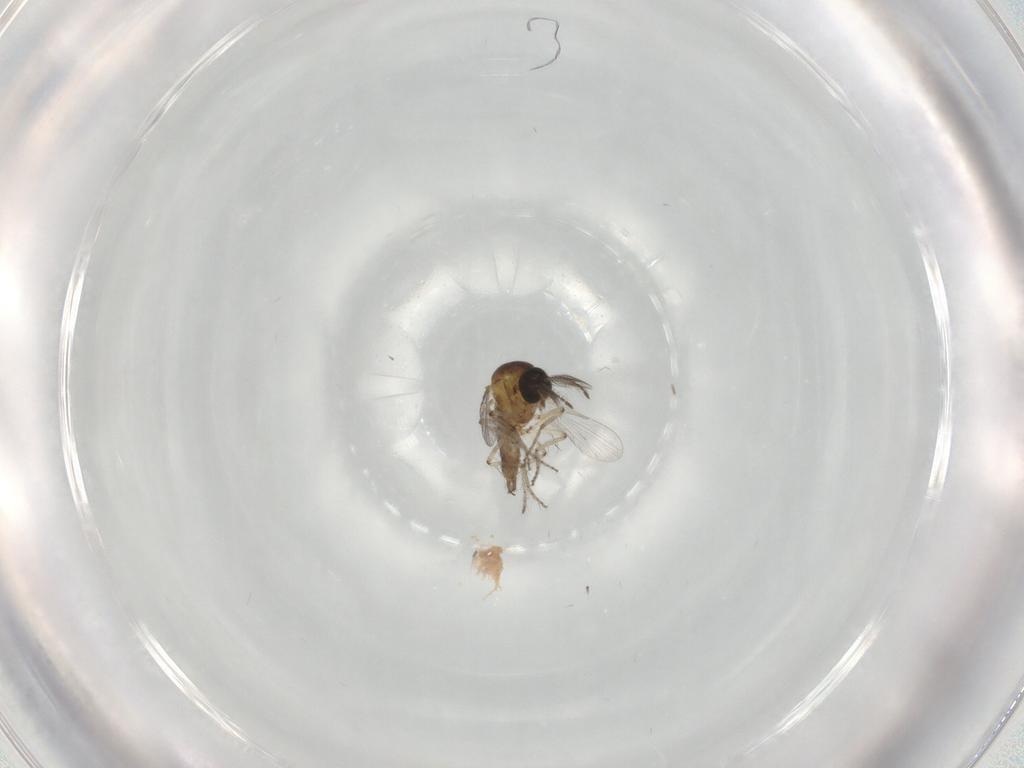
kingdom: Animalia
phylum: Arthropoda
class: Insecta
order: Diptera
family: Ceratopogonidae
